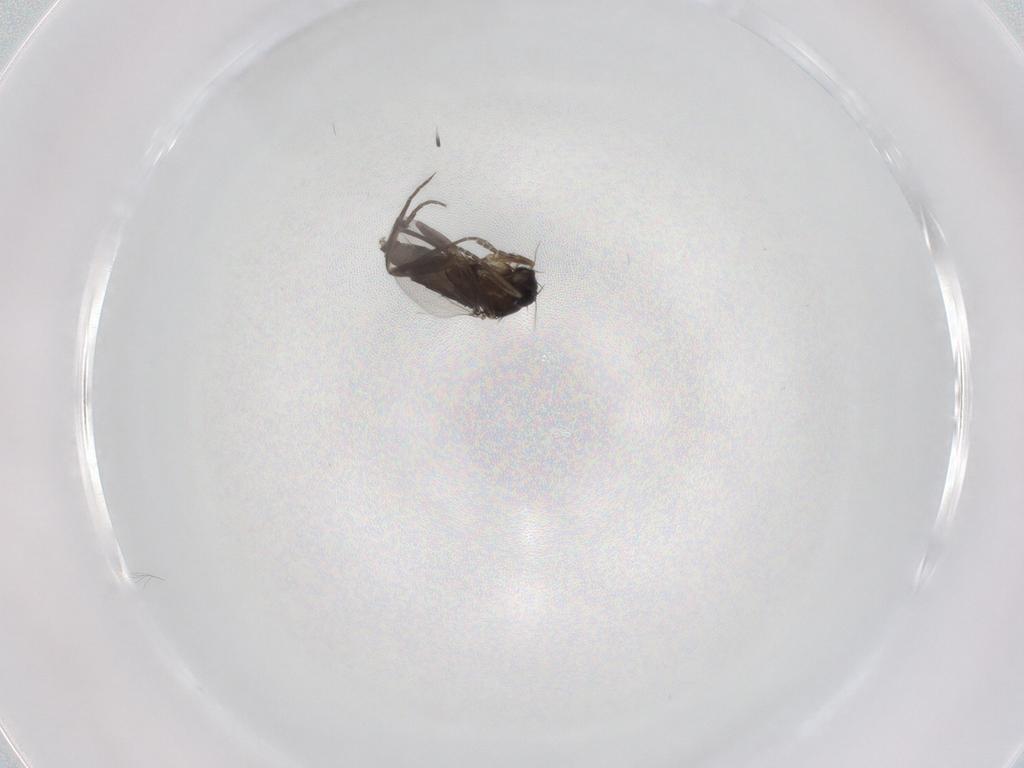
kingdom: Animalia
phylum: Arthropoda
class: Insecta
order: Diptera
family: Phoridae
